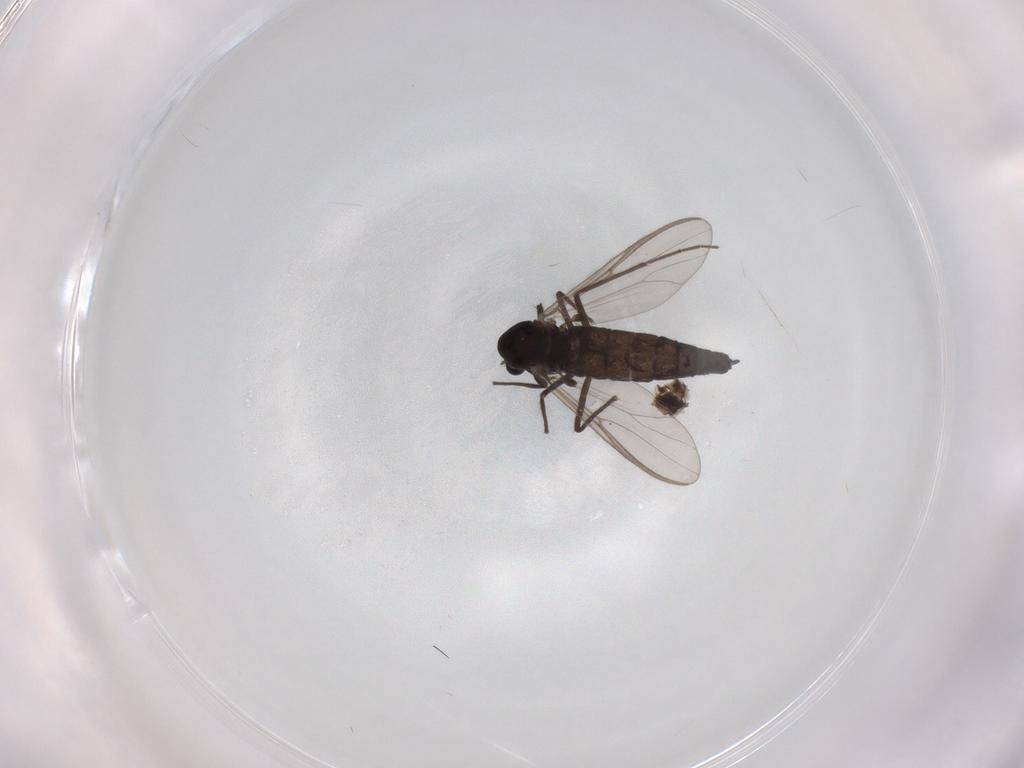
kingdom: Animalia
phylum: Arthropoda
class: Insecta
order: Diptera
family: Chironomidae
